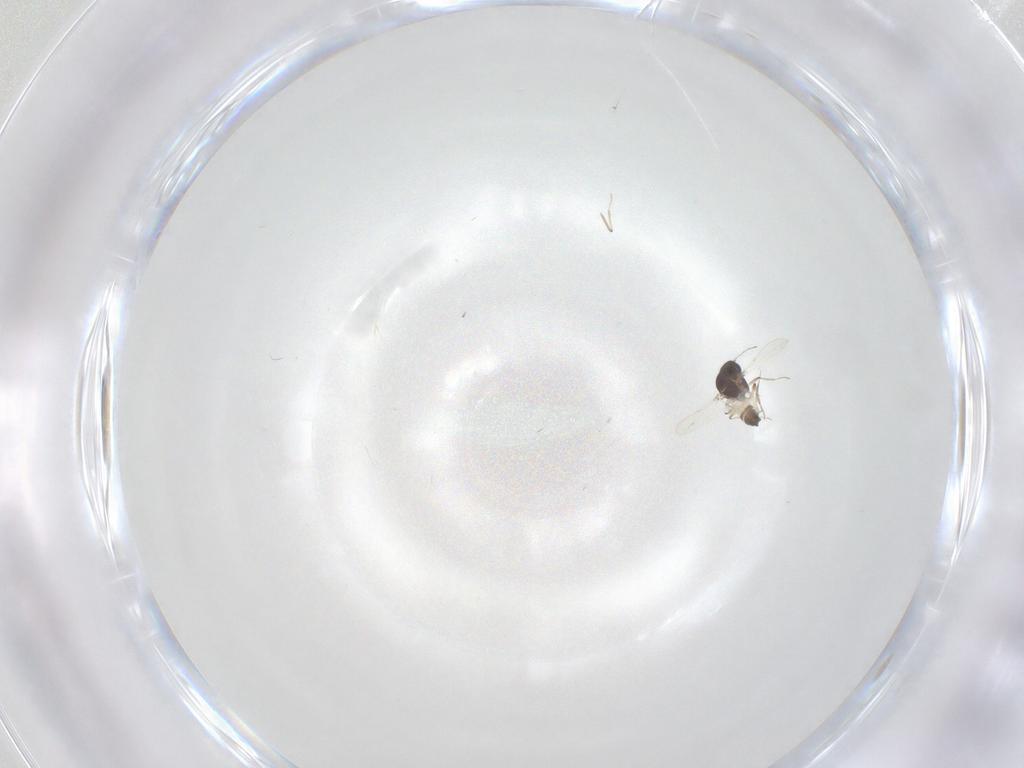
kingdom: Animalia
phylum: Arthropoda
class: Insecta
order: Diptera
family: Ceratopogonidae
